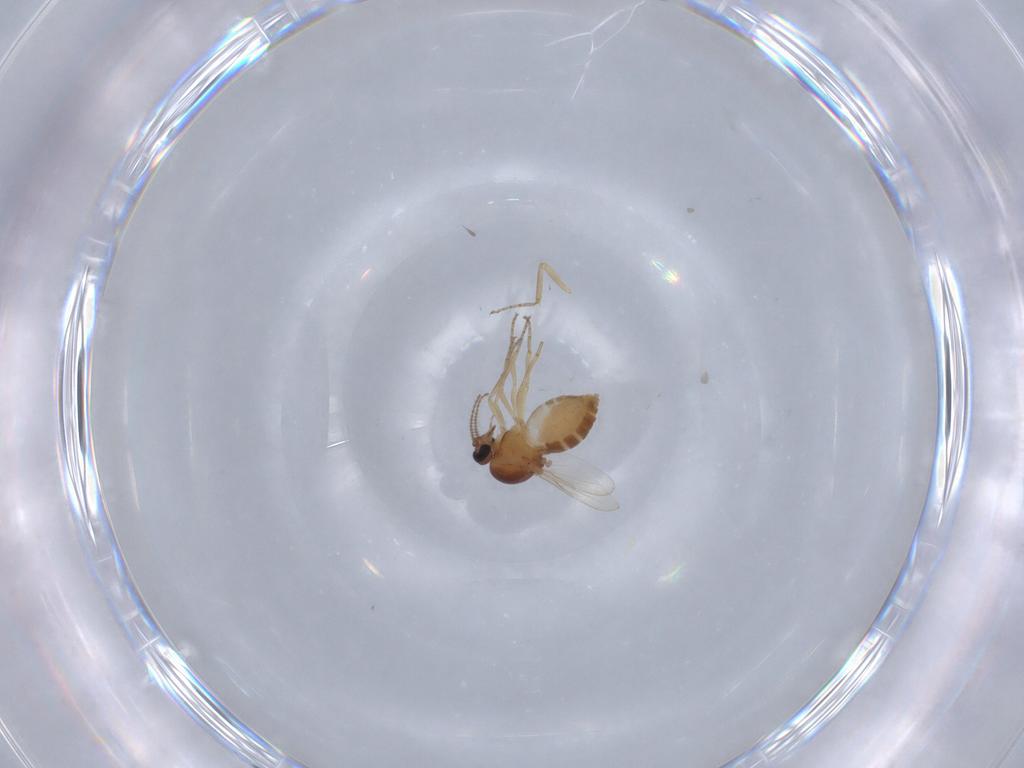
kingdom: Animalia
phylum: Arthropoda
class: Insecta
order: Diptera
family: Ceratopogonidae
